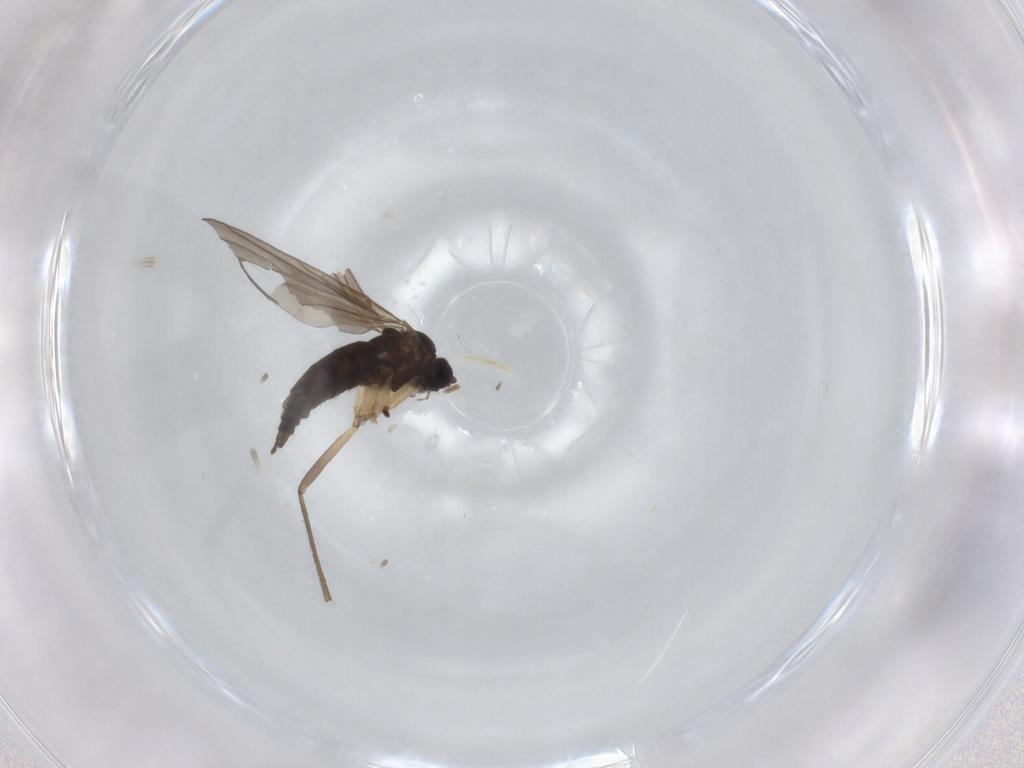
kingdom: Animalia
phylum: Arthropoda
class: Insecta
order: Diptera
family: Sciaridae
